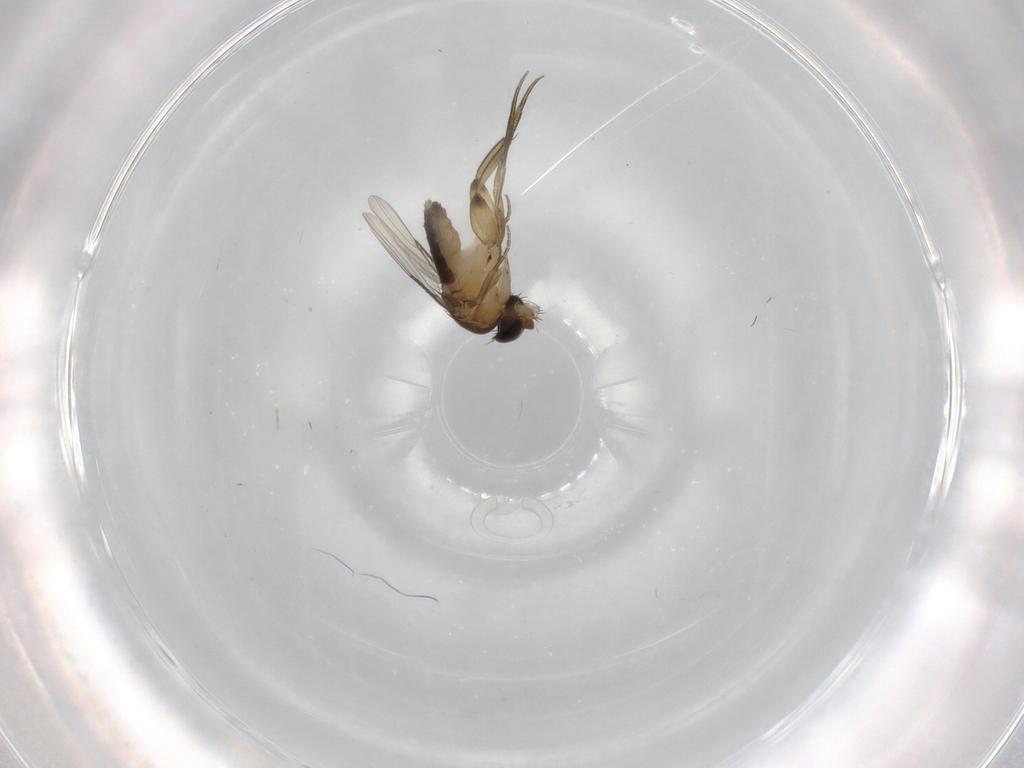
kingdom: Animalia
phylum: Arthropoda
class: Insecta
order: Diptera
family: Phoridae
